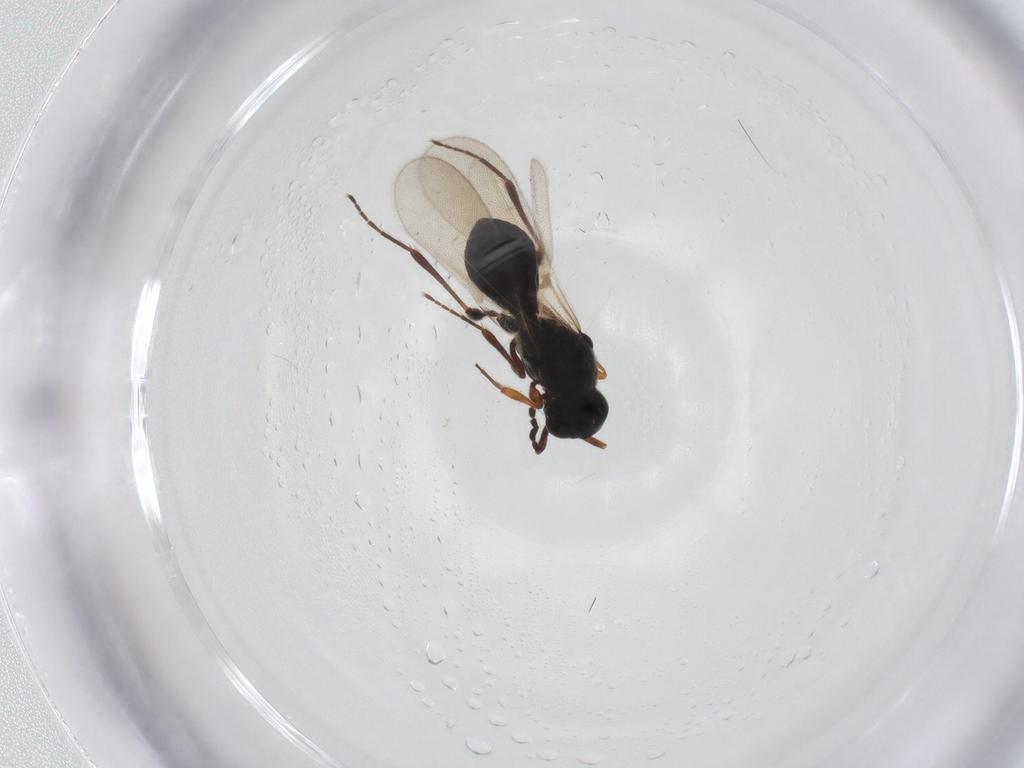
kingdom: Animalia
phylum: Arthropoda
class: Insecta
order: Hymenoptera
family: Platygastridae
